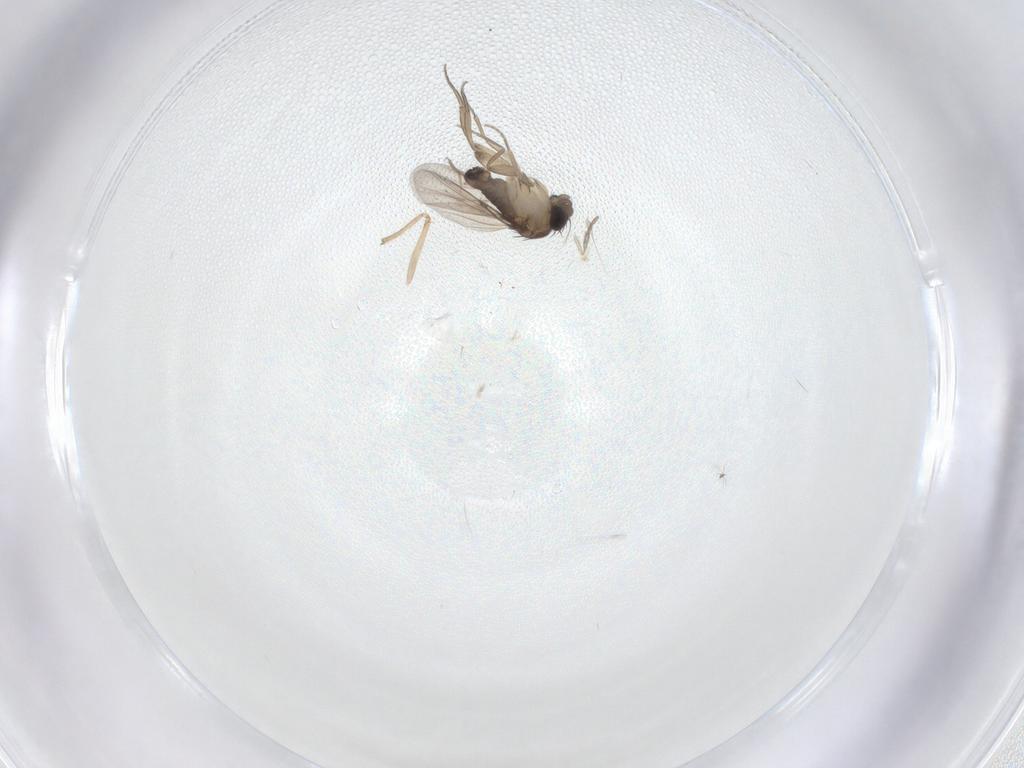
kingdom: Animalia
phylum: Arthropoda
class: Insecta
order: Diptera
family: Phoridae
